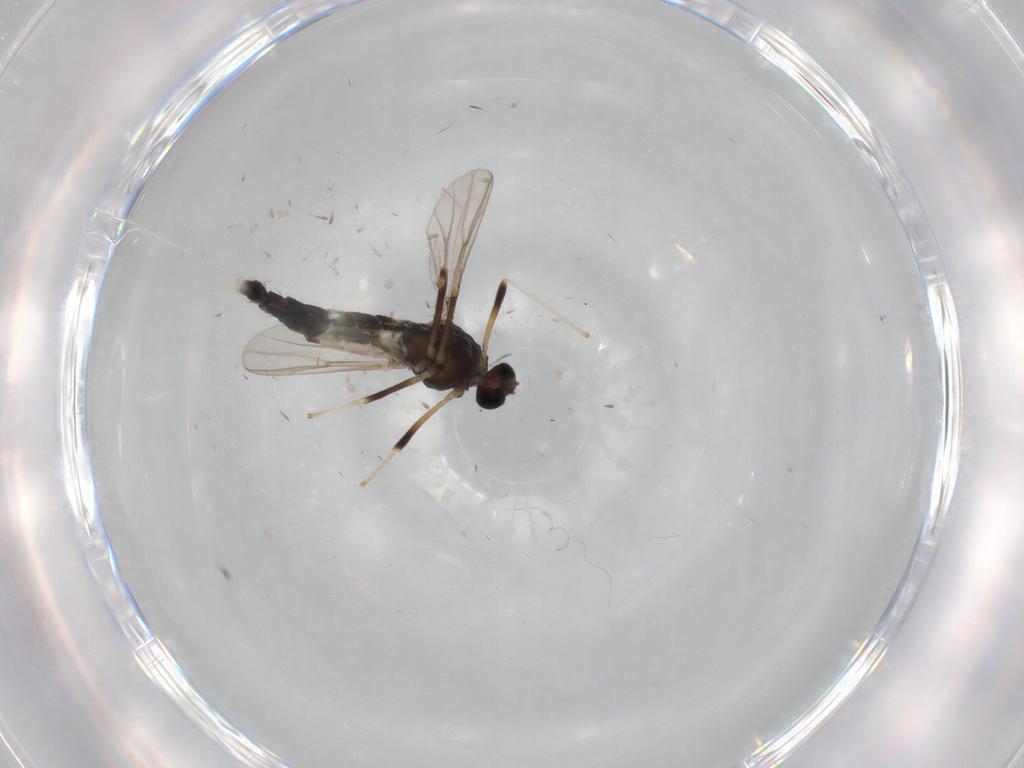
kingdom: Animalia
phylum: Arthropoda
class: Insecta
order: Diptera
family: Chironomidae
